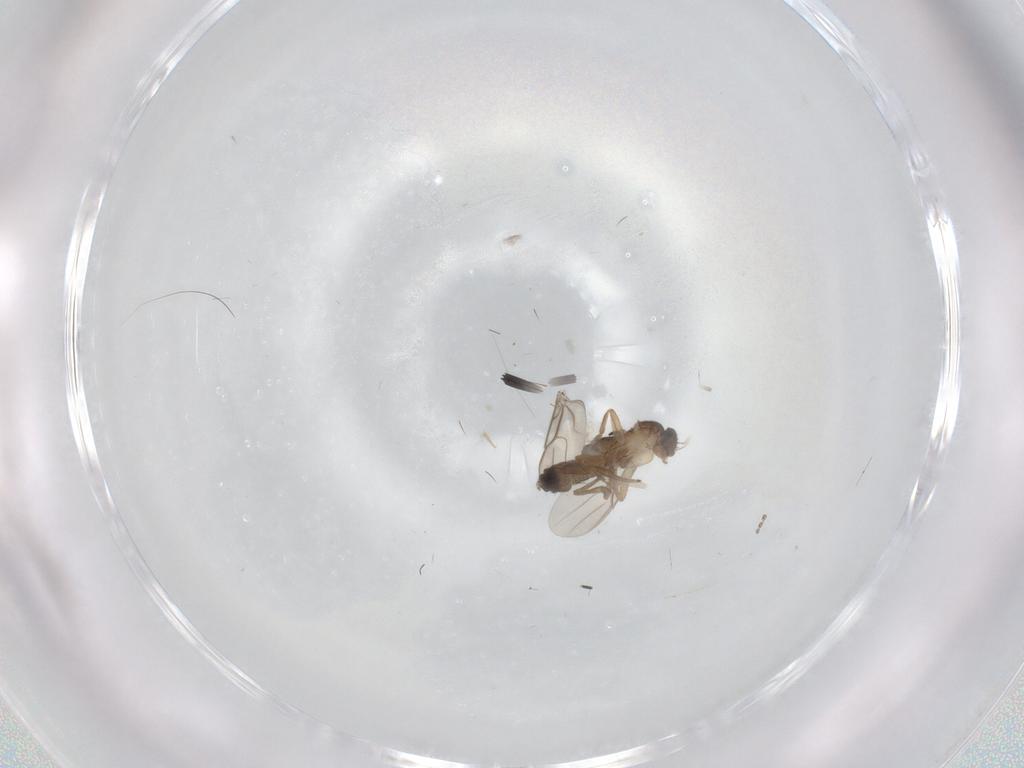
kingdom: Animalia
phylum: Arthropoda
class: Insecta
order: Diptera
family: Phoridae
